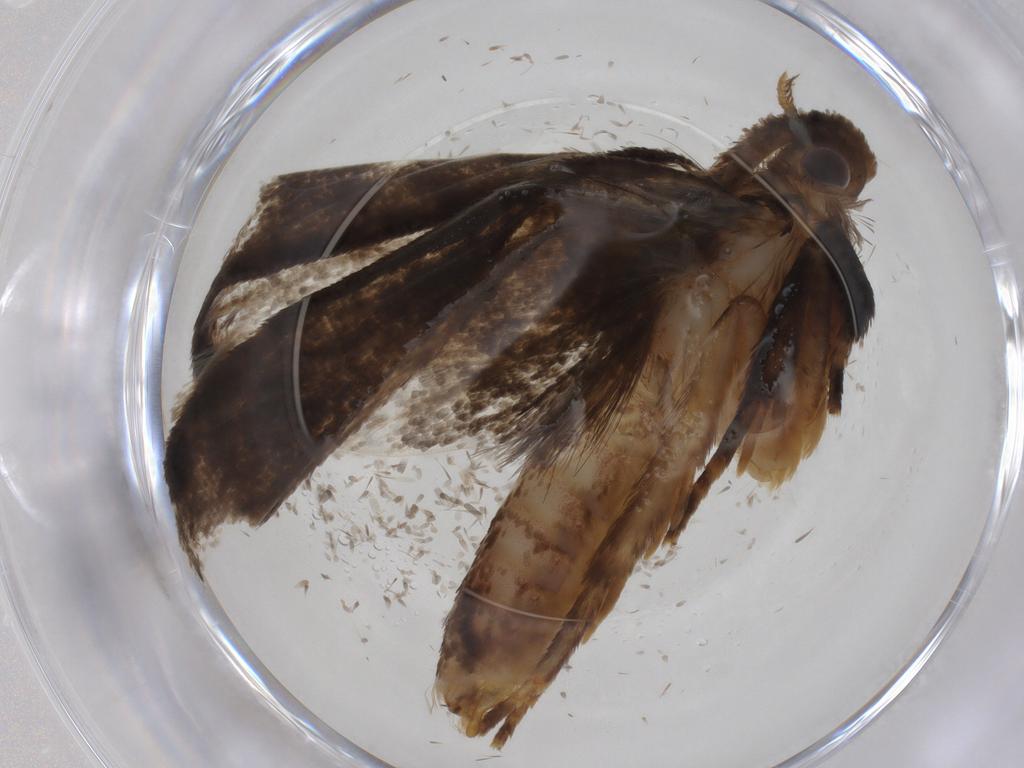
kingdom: Animalia
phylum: Arthropoda
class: Insecta
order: Lepidoptera
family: Tineidae
